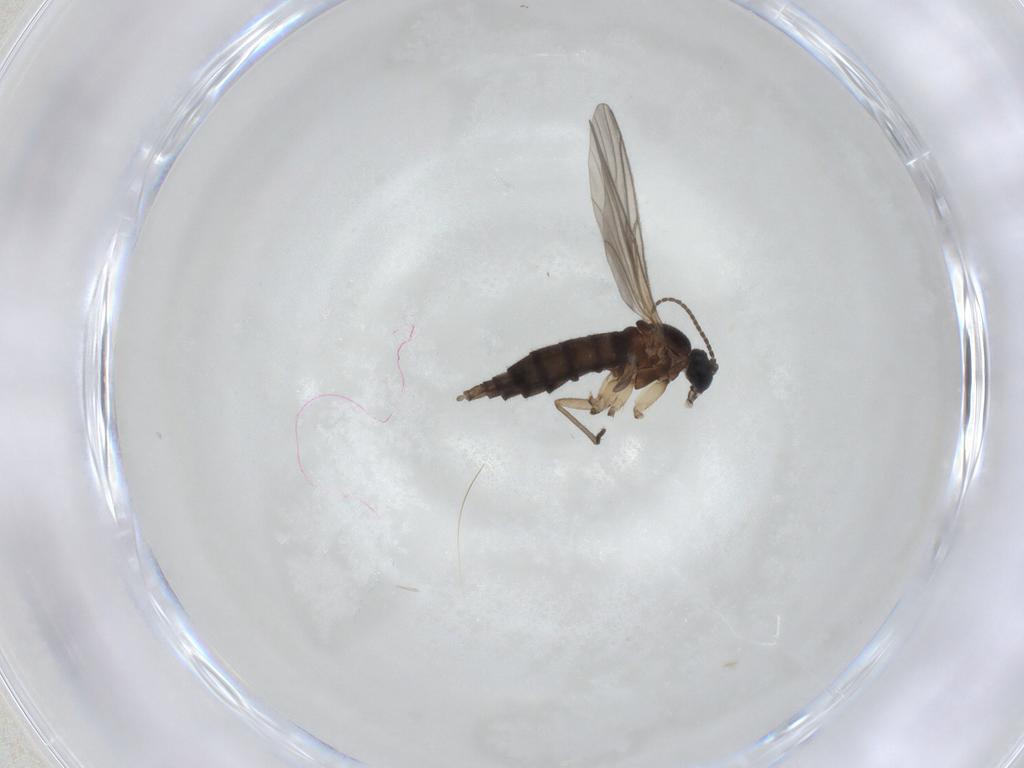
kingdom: Animalia
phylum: Arthropoda
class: Insecta
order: Diptera
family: Sciaridae
